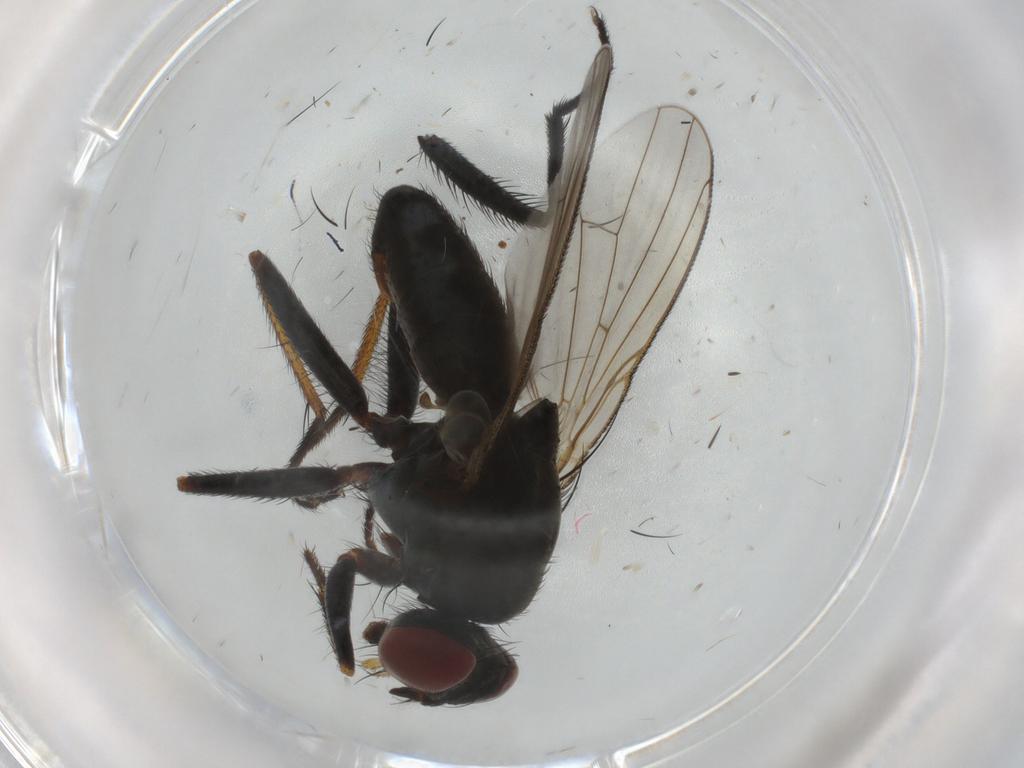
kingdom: Animalia
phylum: Arthropoda
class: Insecta
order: Diptera
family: Muscidae
